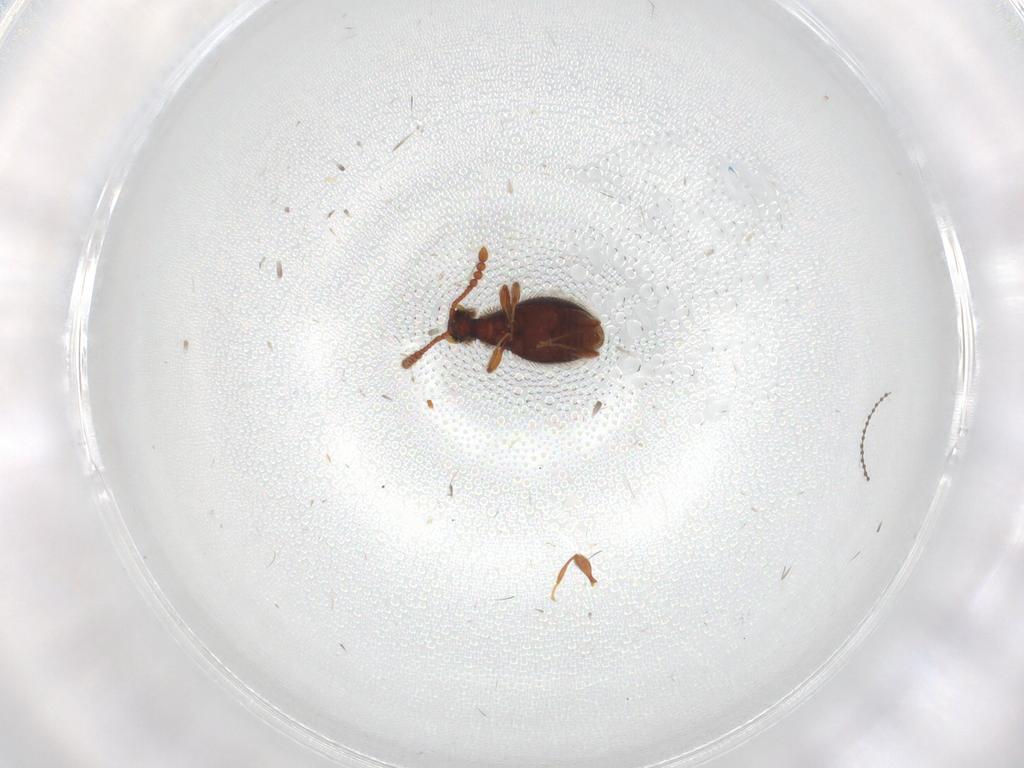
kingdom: Animalia
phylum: Arthropoda
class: Insecta
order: Coleoptera
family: Staphylinidae
